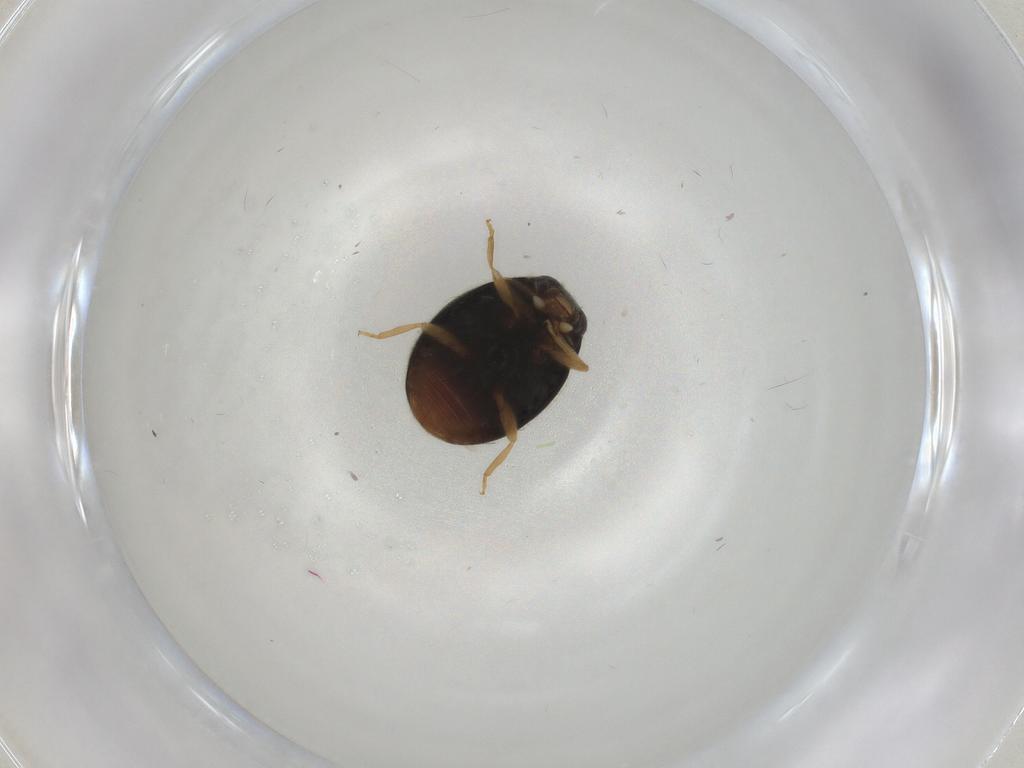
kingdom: Animalia
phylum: Arthropoda
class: Insecta
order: Coleoptera
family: Coccinellidae
